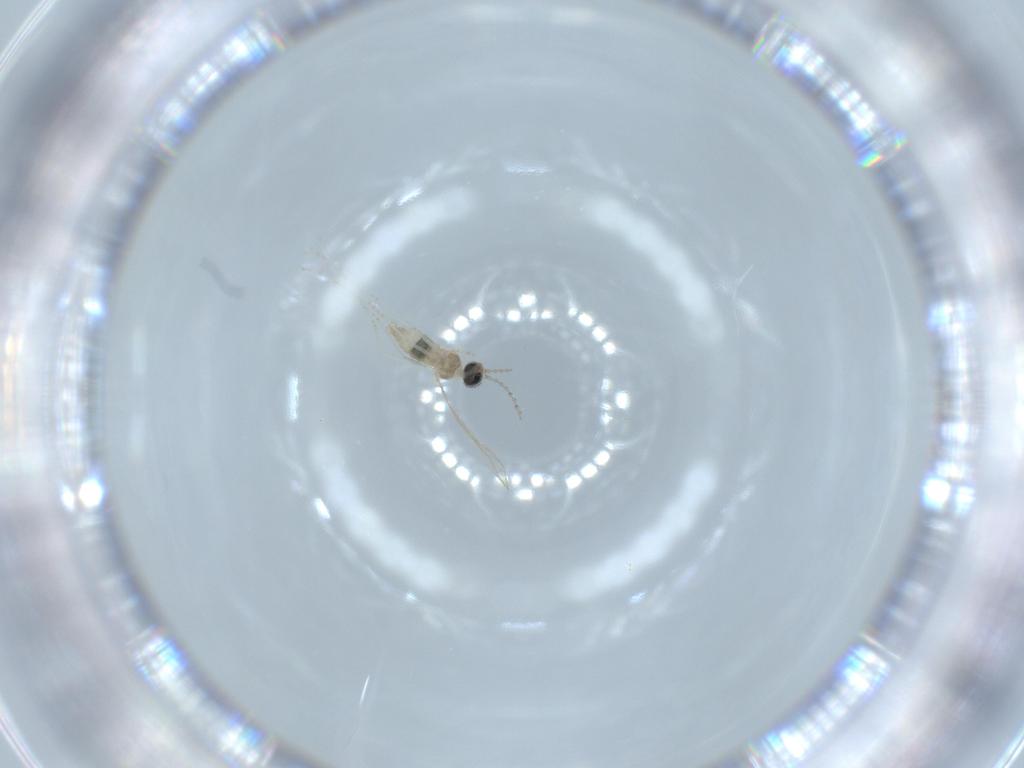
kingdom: Animalia
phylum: Arthropoda
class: Insecta
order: Diptera
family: Cecidomyiidae
